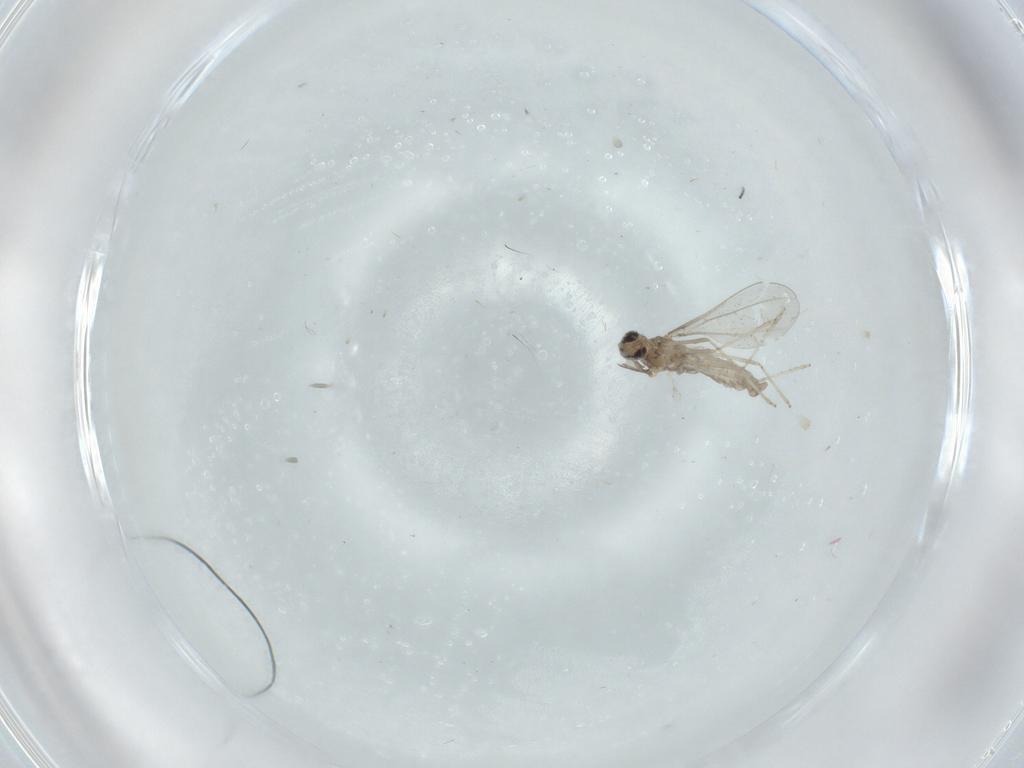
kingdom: Animalia
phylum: Arthropoda
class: Insecta
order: Diptera
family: Cecidomyiidae
